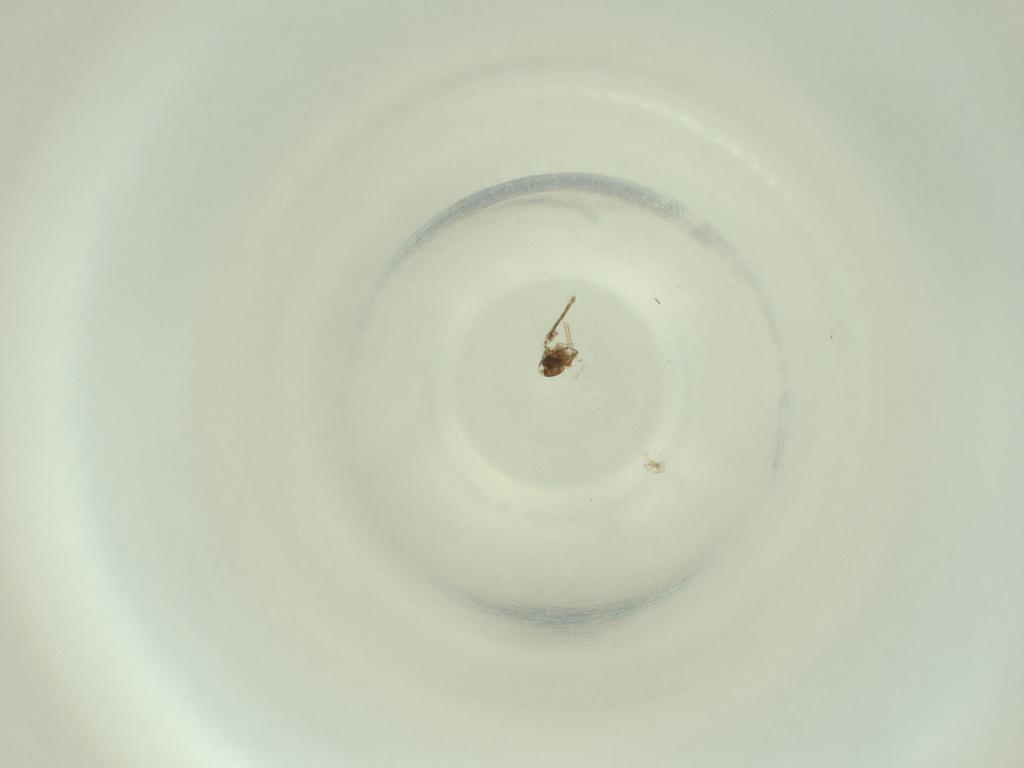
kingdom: Animalia
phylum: Arthropoda
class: Insecta
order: Diptera
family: Cecidomyiidae
